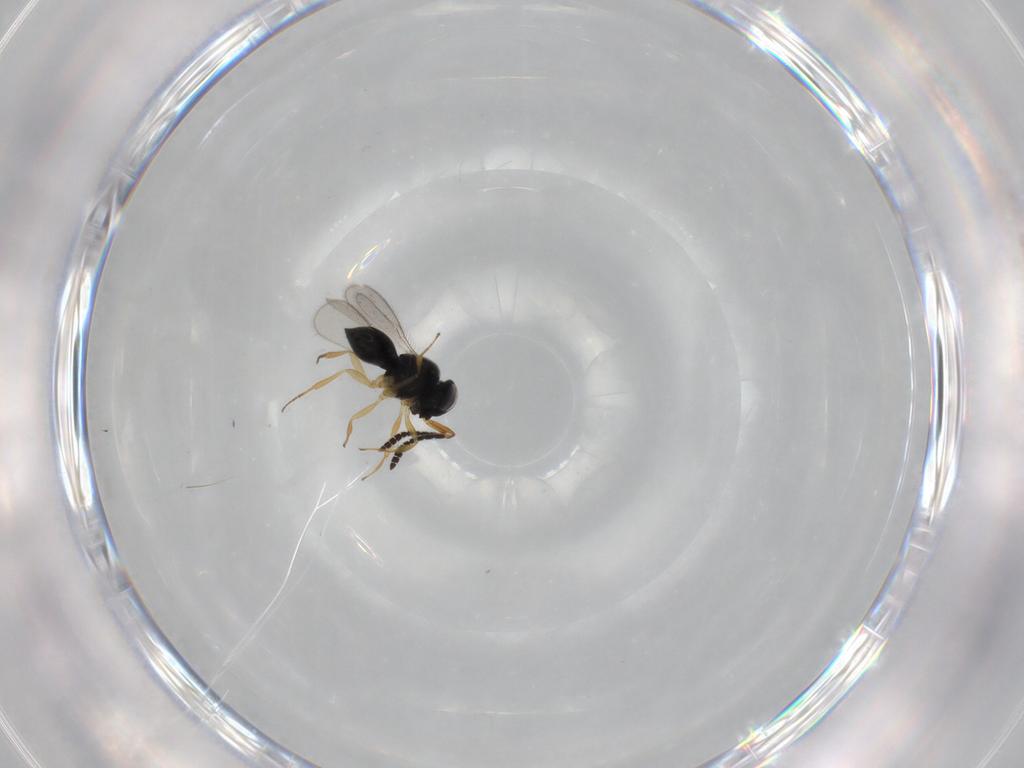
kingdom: Animalia
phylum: Arthropoda
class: Insecta
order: Hymenoptera
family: Scelionidae
